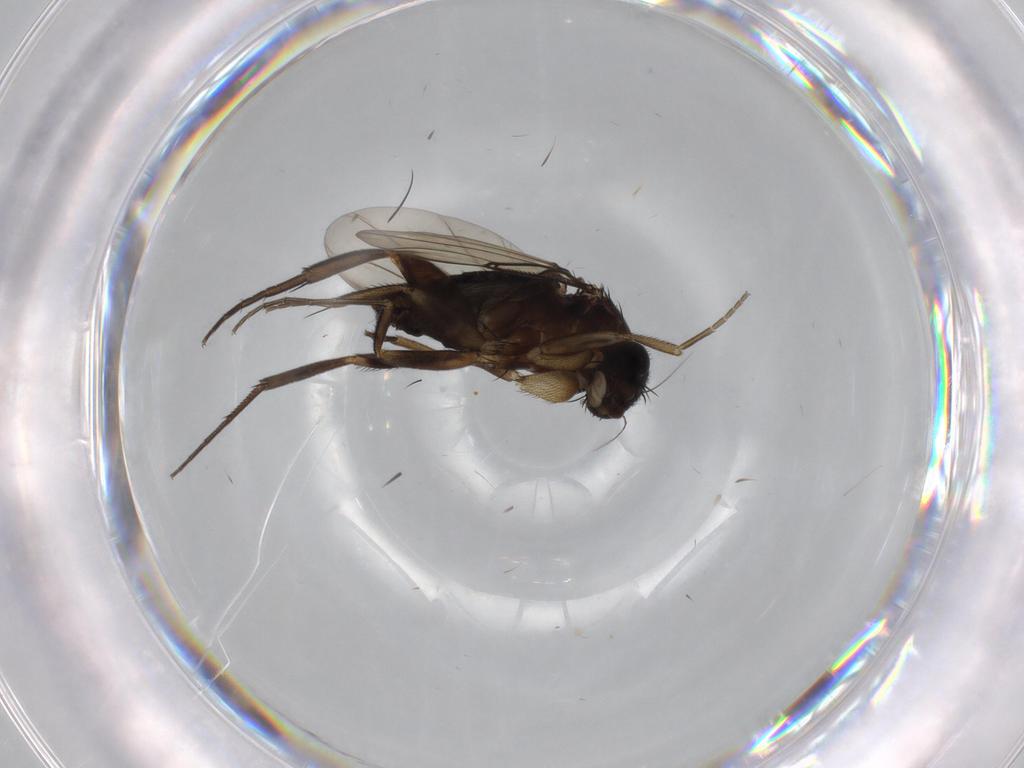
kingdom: Animalia
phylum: Arthropoda
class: Insecta
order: Diptera
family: Phoridae
